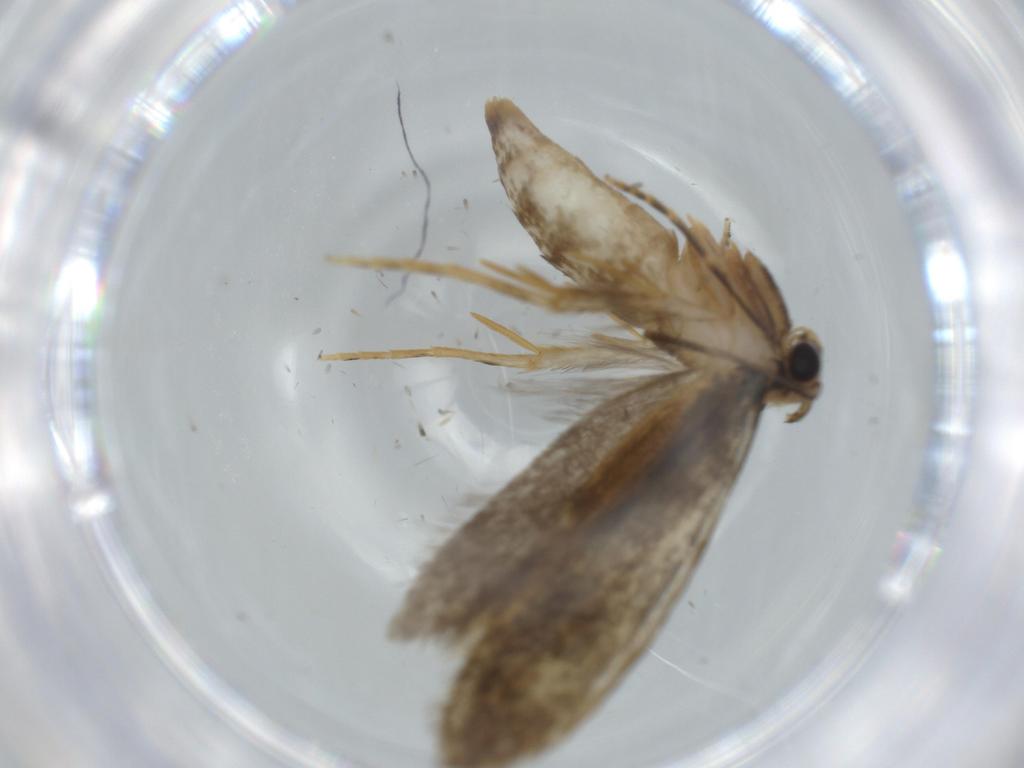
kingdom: Animalia
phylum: Arthropoda
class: Insecta
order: Lepidoptera
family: Tineidae
